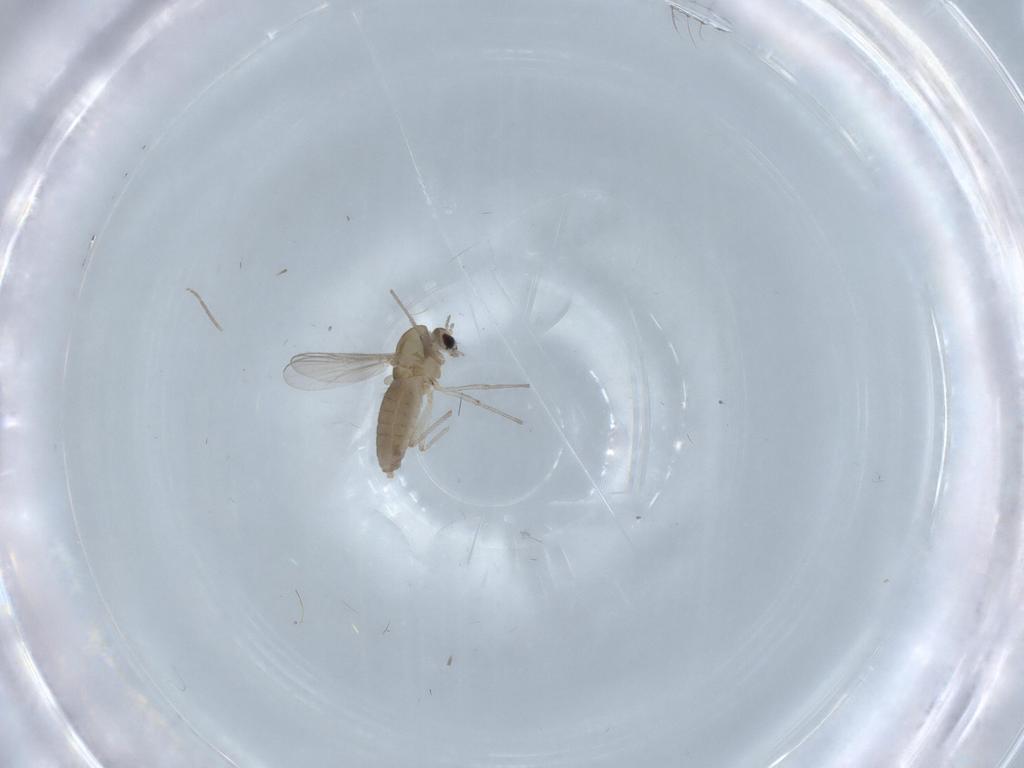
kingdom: Animalia
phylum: Arthropoda
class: Insecta
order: Diptera
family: Chironomidae
